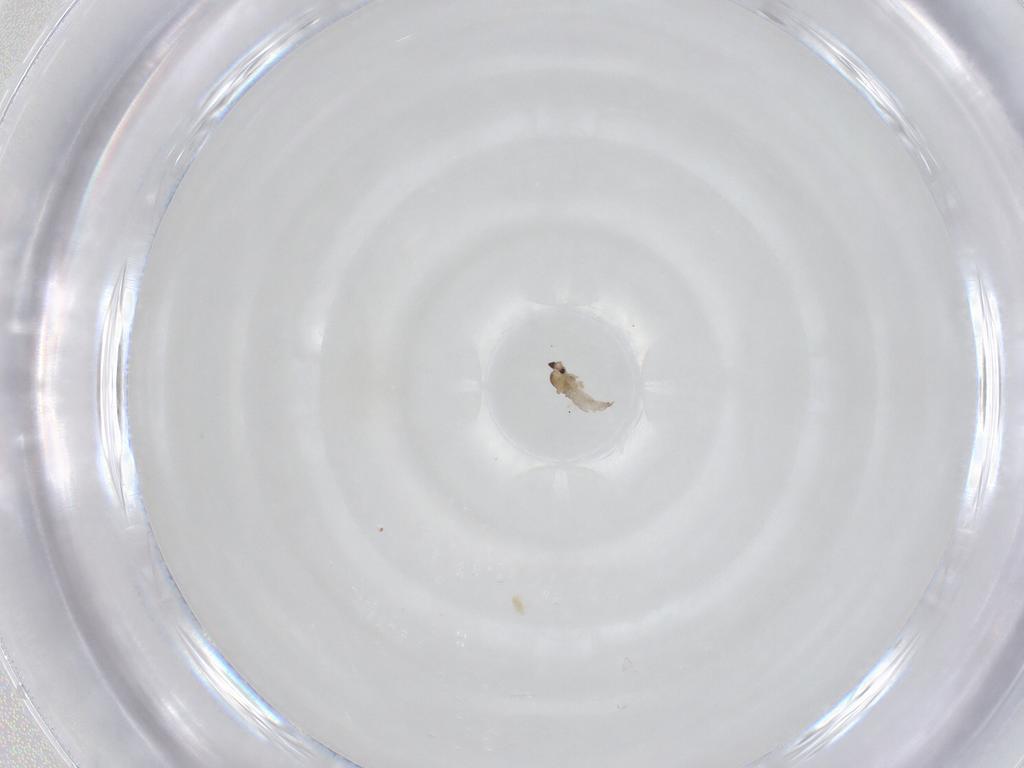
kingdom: Animalia
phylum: Arthropoda
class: Insecta
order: Diptera
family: Cecidomyiidae
